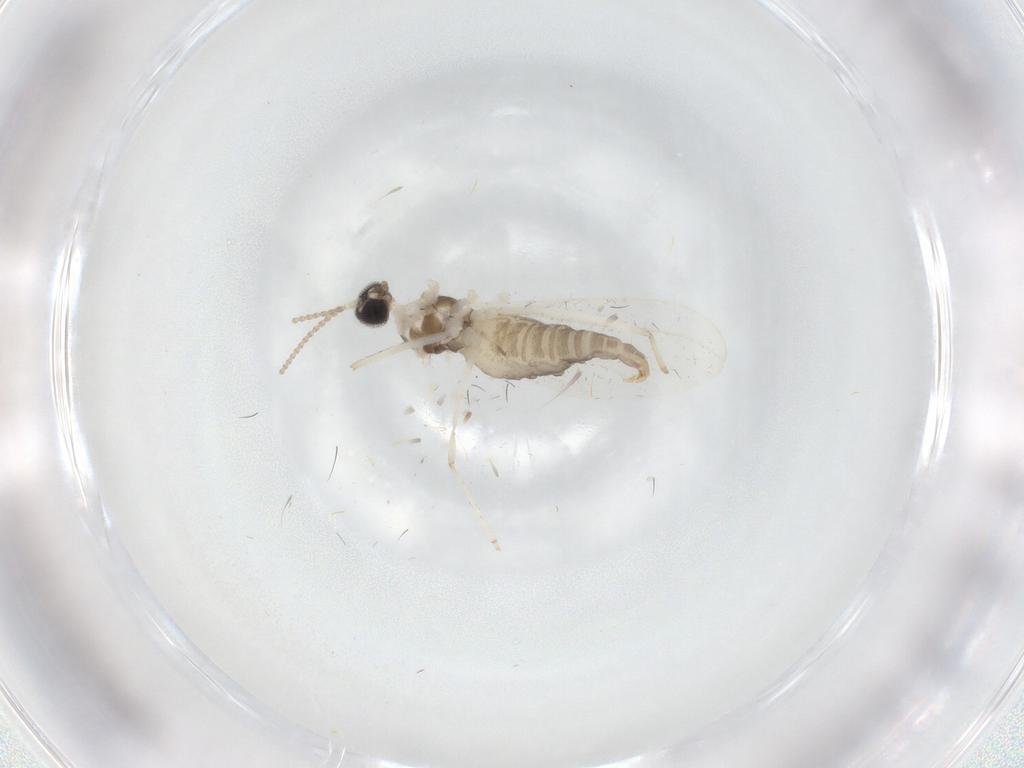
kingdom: Animalia
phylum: Arthropoda
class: Insecta
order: Diptera
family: Cecidomyiidae
